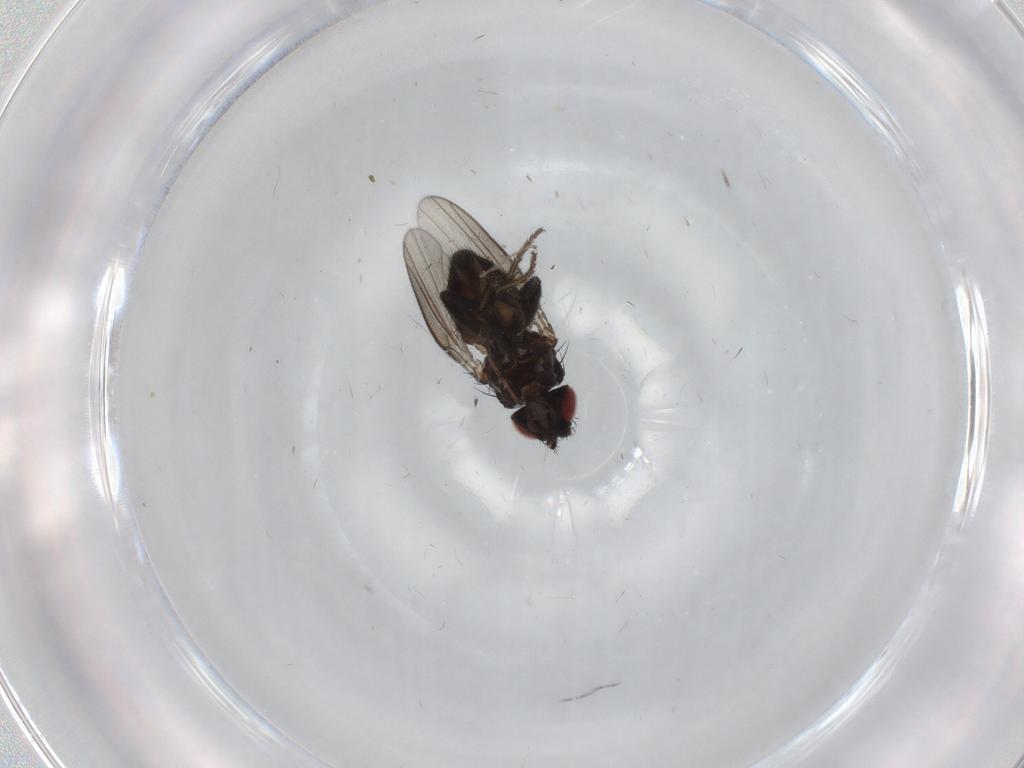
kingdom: Animalia
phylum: Arthropoda
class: Insecta
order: Diptera
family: Milichiidae
